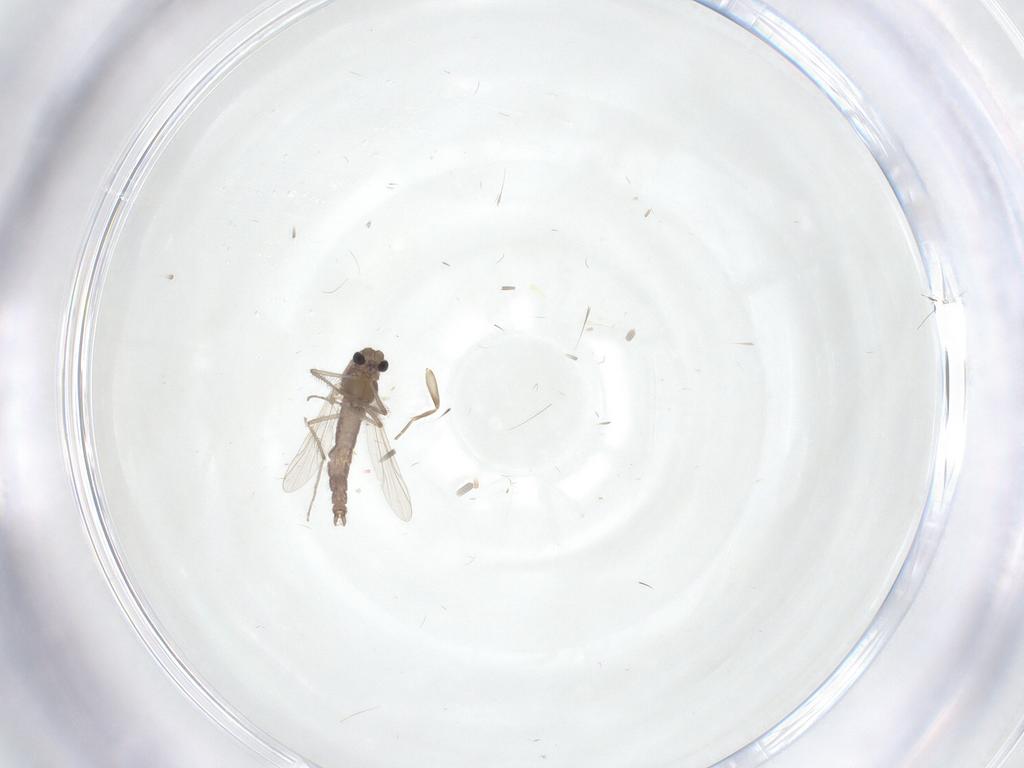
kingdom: Animalia
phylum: Arthropoda
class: Insecta
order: Diptera
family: Chironomidae
